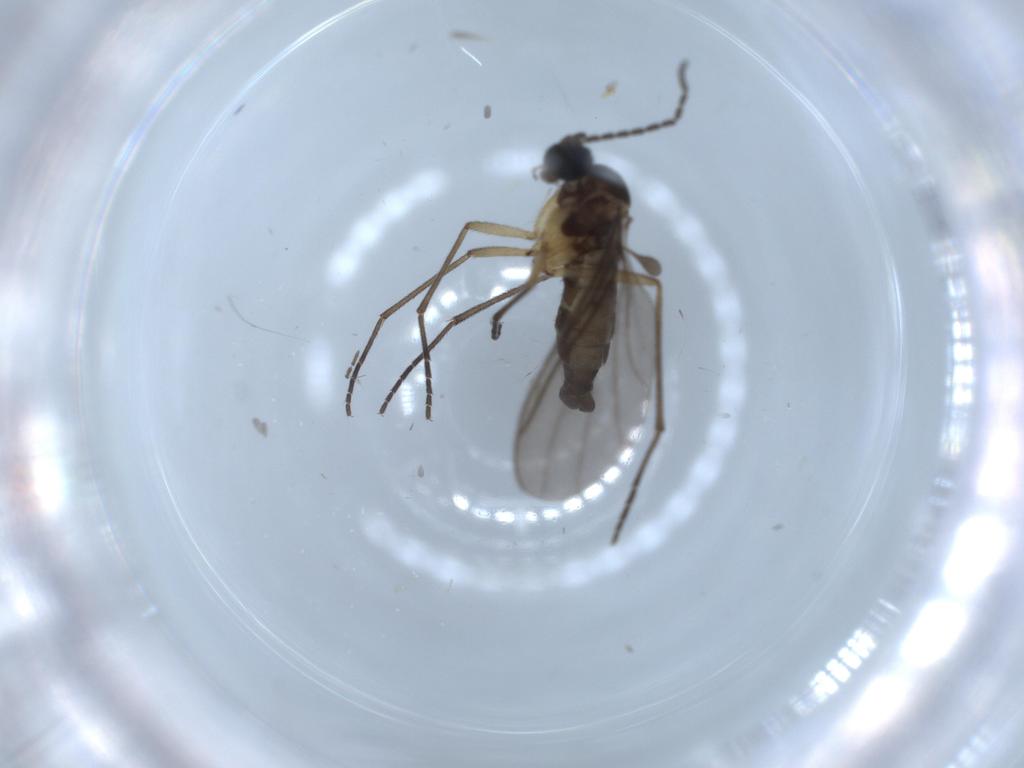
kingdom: Animalia
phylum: Arthropoda
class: Insecta
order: Diptera
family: Sciaridae
